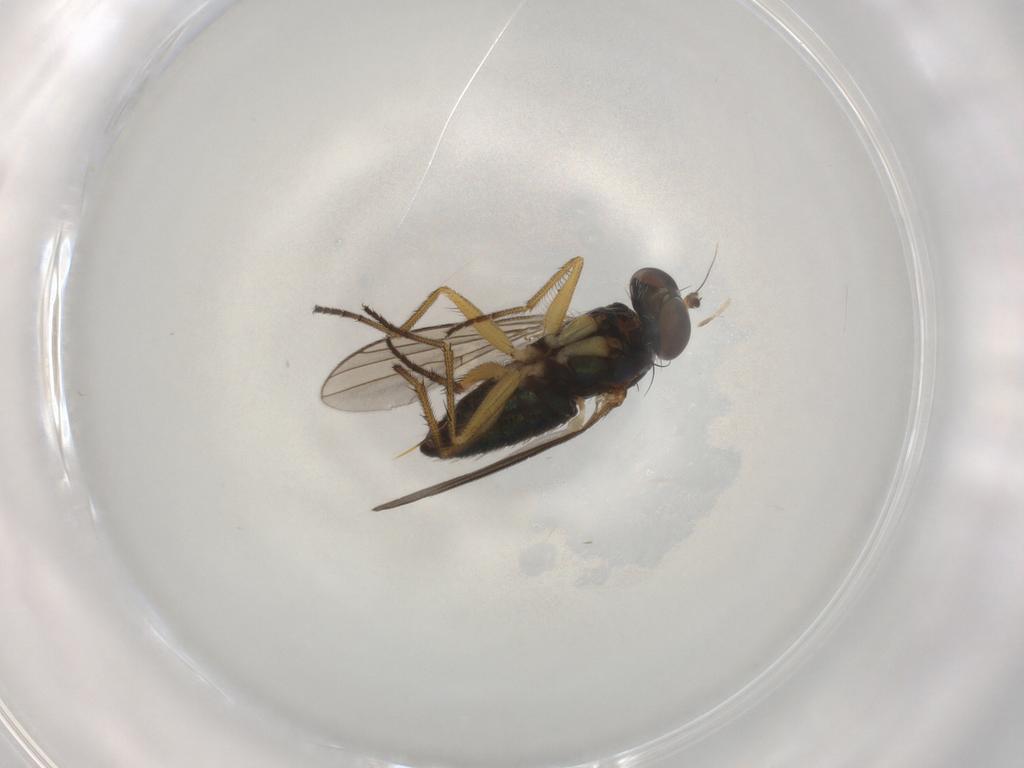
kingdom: Animalia
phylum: Arthropoda
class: Insecta
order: Diptera
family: Dolichopodidae
